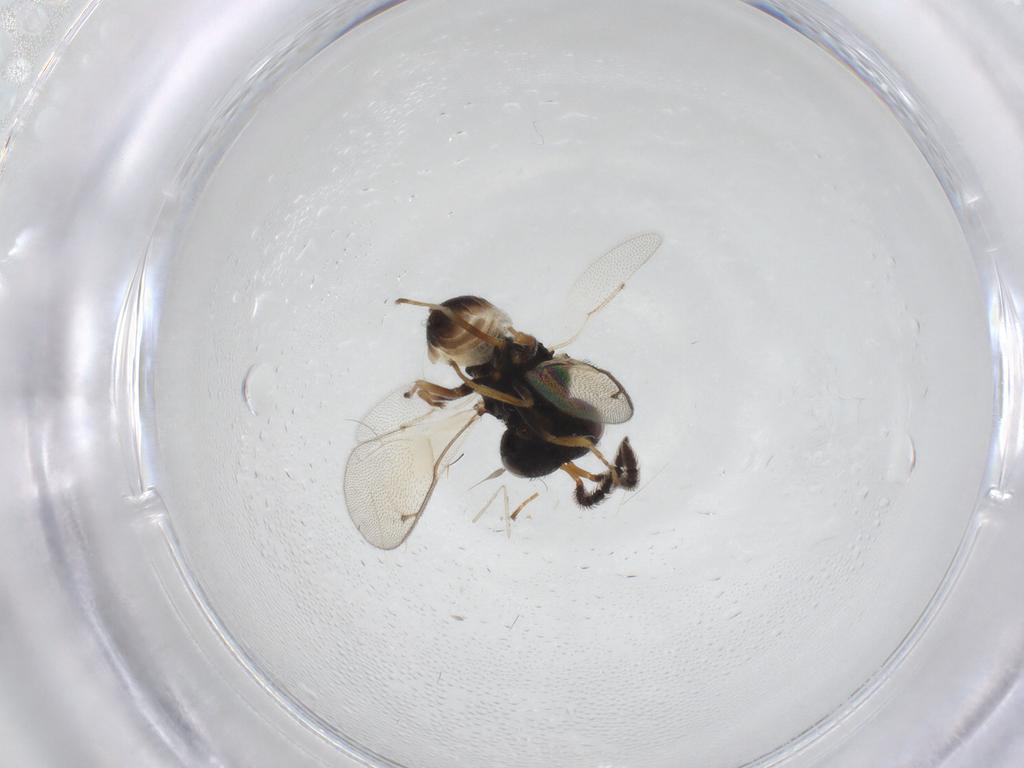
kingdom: Animalia
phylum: Arthropoda
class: Insecta
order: Hymenoptera
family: Pteromalidae
